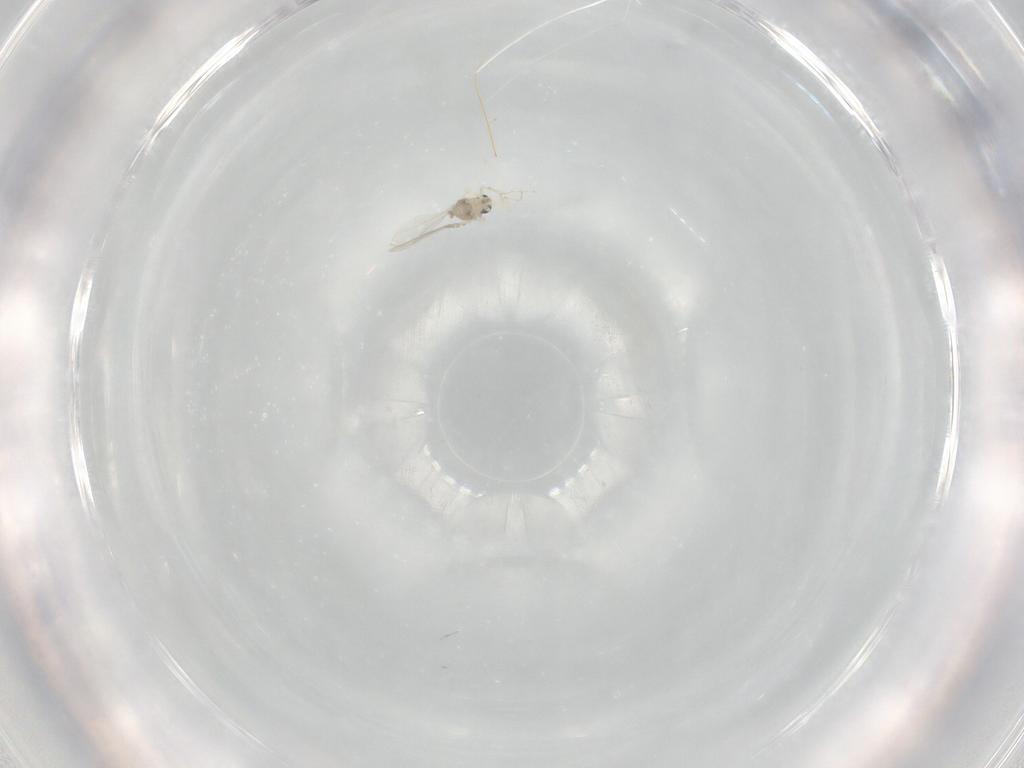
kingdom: Animalia
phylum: Arthropoda
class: Insecta
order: Diptera
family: Cecidomyiidae
